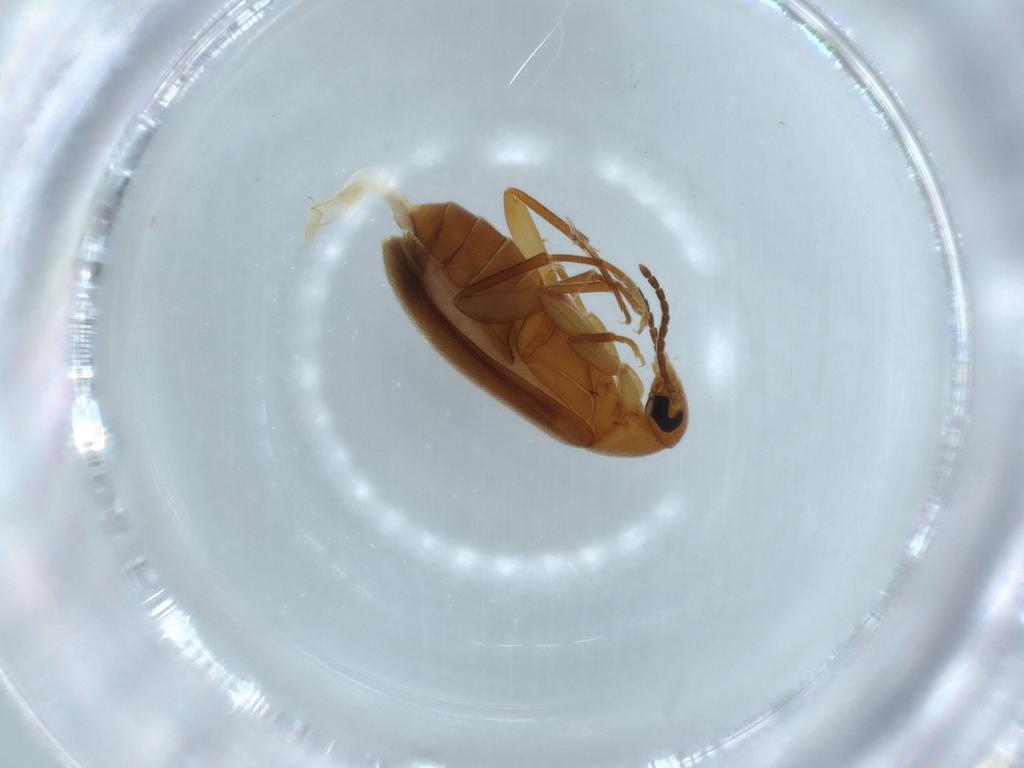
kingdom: Animalia
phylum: Arthropoda
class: Insecta
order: Coleoptera
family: Scraptiidae
